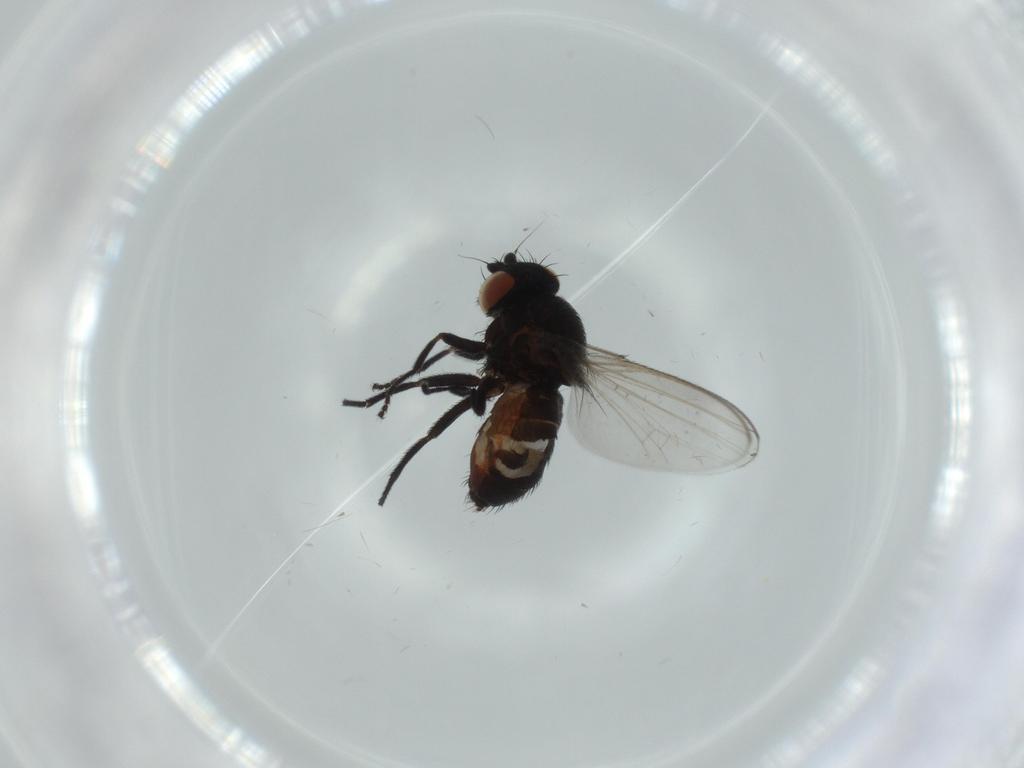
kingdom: Animalia
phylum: Arthropoda
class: Insecta
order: Diptera
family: Milichiidae
